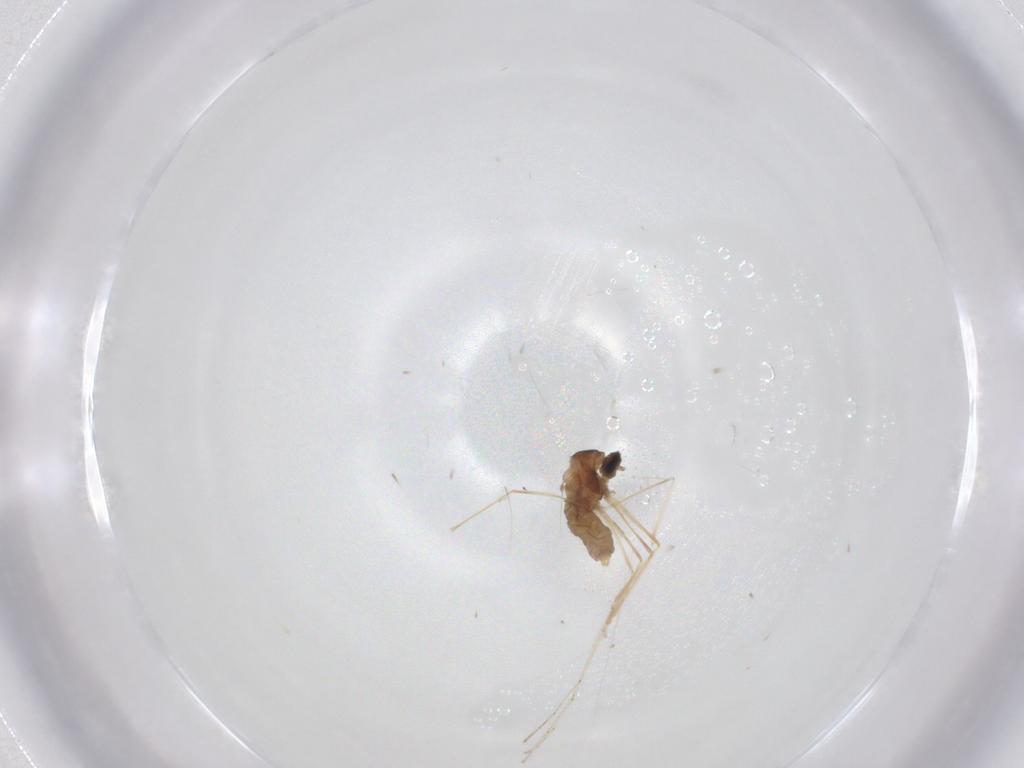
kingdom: Animalia
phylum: Arthropoda
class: Insecta
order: Diptera
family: Cecidomyiidae
